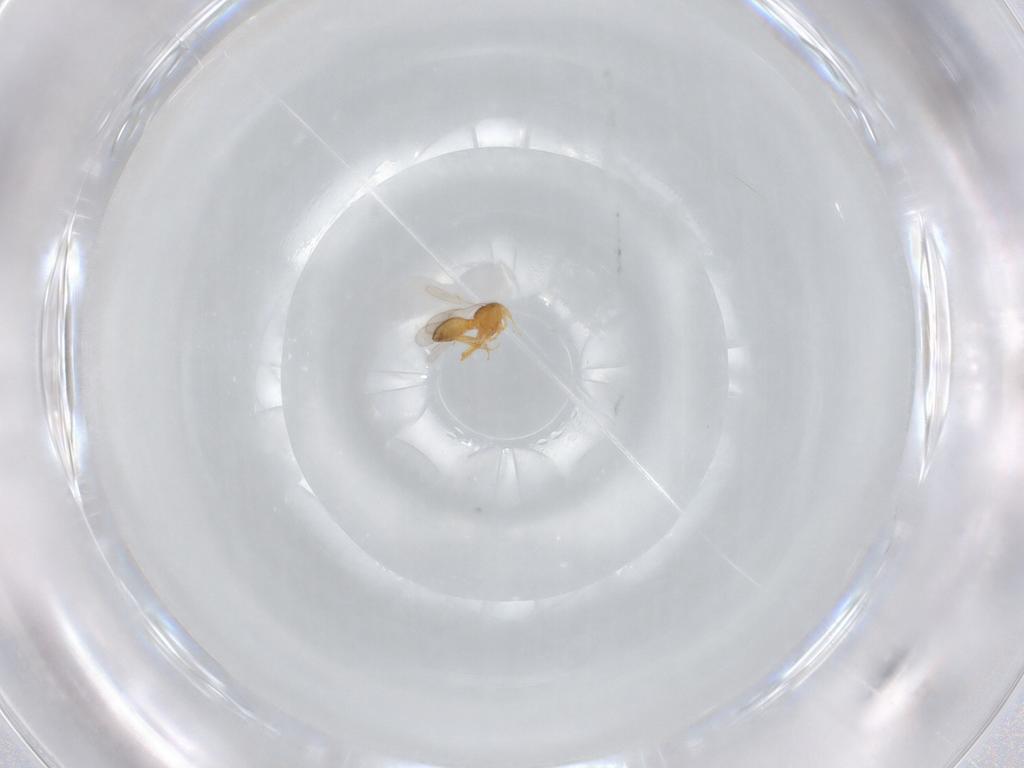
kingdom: Animalia
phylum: Arthropoda
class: Insecta
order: Hymenoptera
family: Scelionidae
